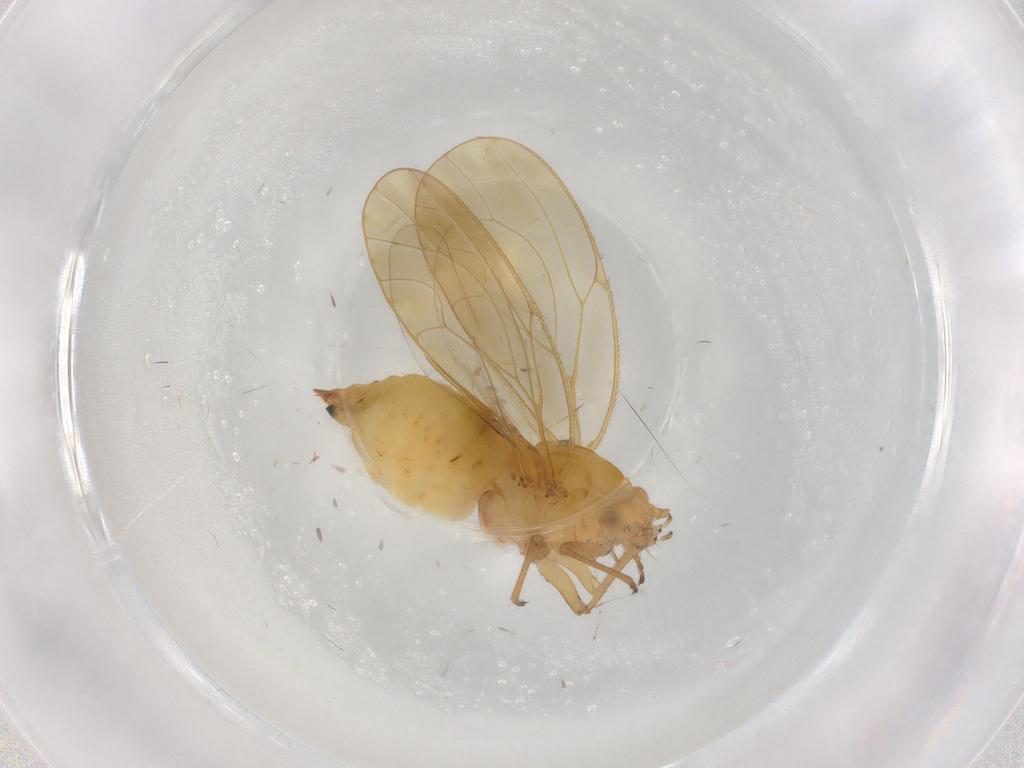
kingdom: Animalia
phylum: Arthropoda
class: Insecta
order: Hemiptera
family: Psyllidae
